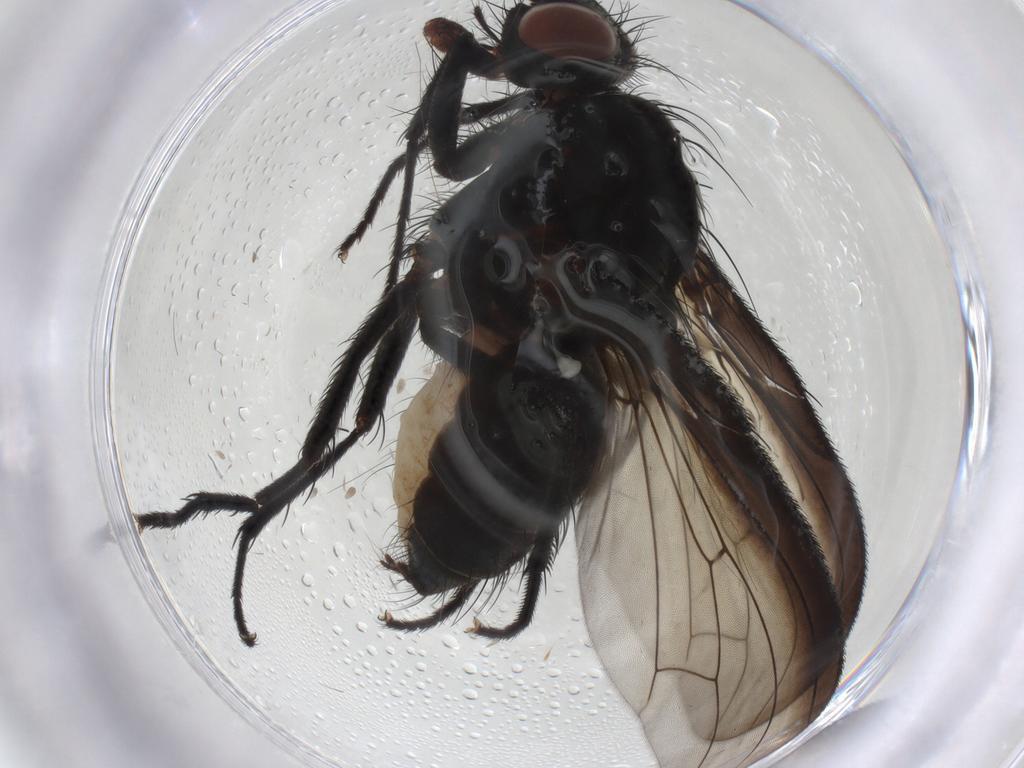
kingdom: Animalia
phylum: Arthropoda
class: Insecta
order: Diptera
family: Anthomyiidae
